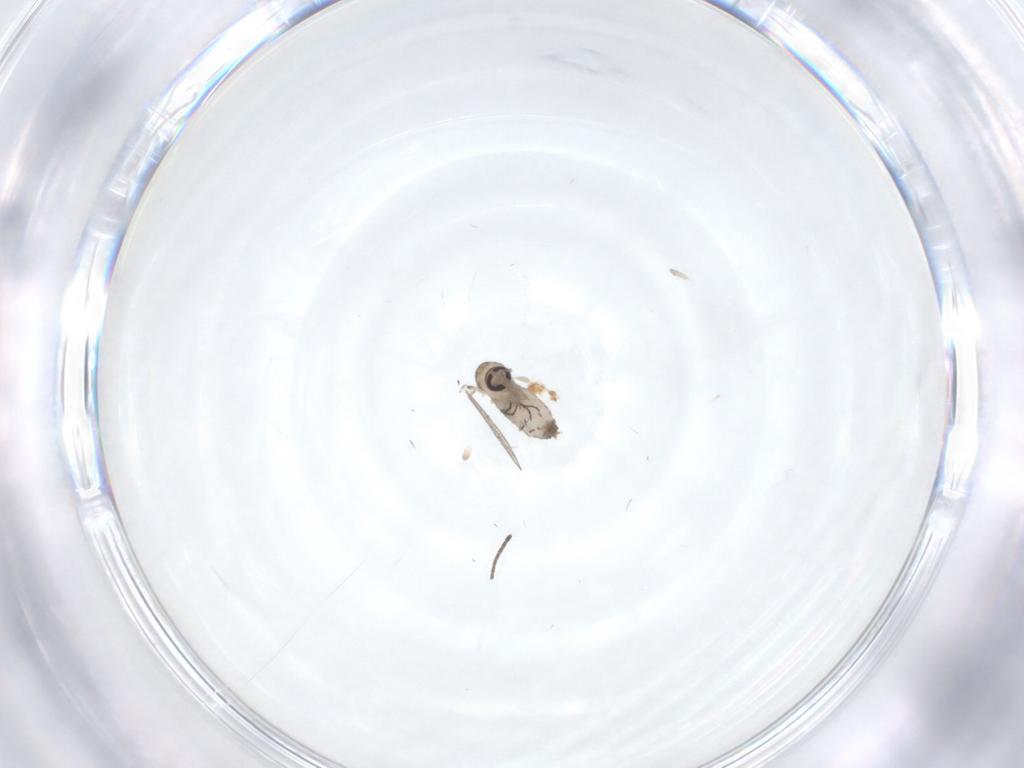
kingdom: Animalia
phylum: Arthropoda
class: Insecta
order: Diptera
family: Psychodidae
